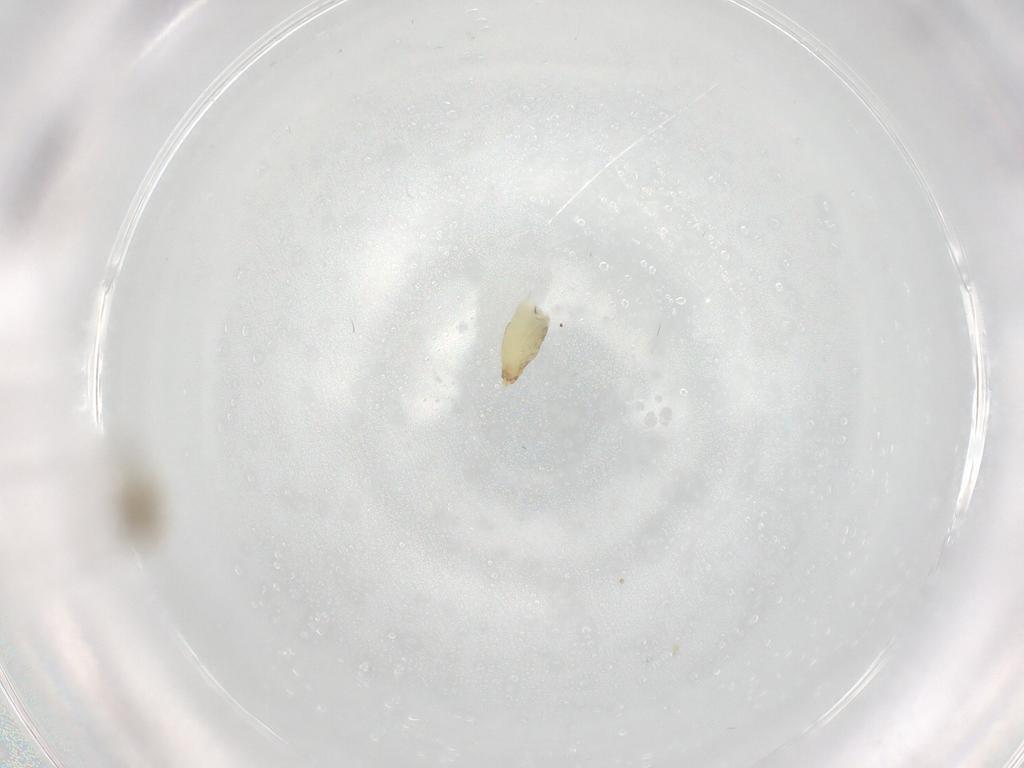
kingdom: Animalia
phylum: Arthropoda
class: Insecta
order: Diptera
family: Chironomidae
